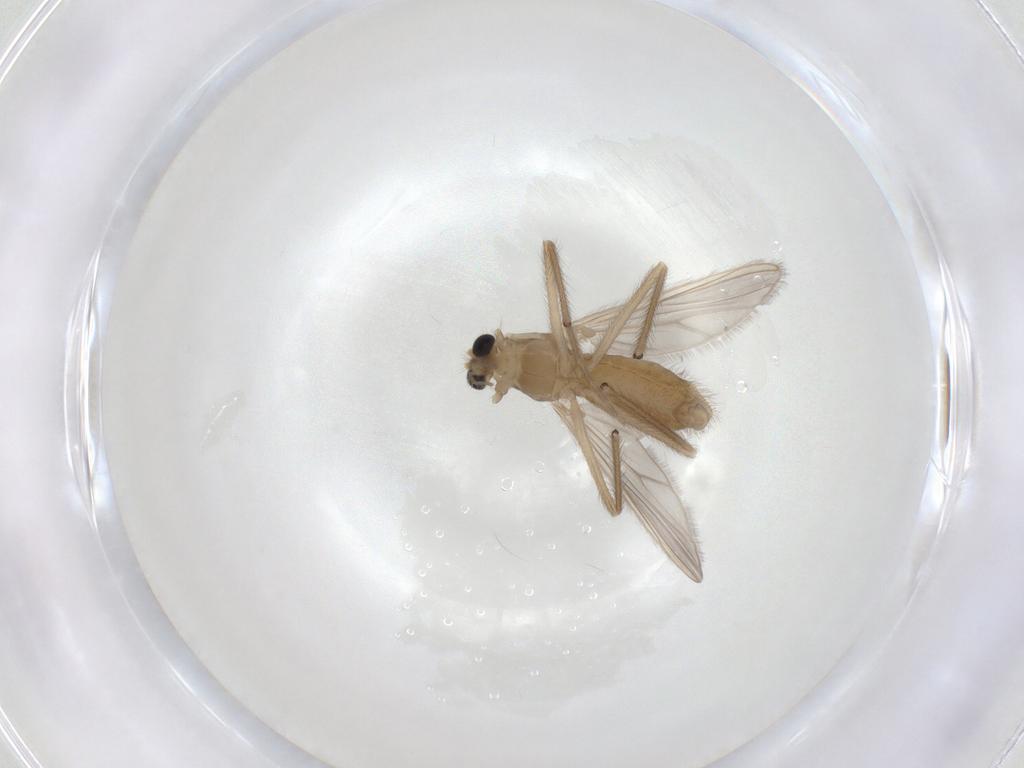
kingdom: Animalia
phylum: Arthropoda
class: Insecta
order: Diptera
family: Chironomidae
